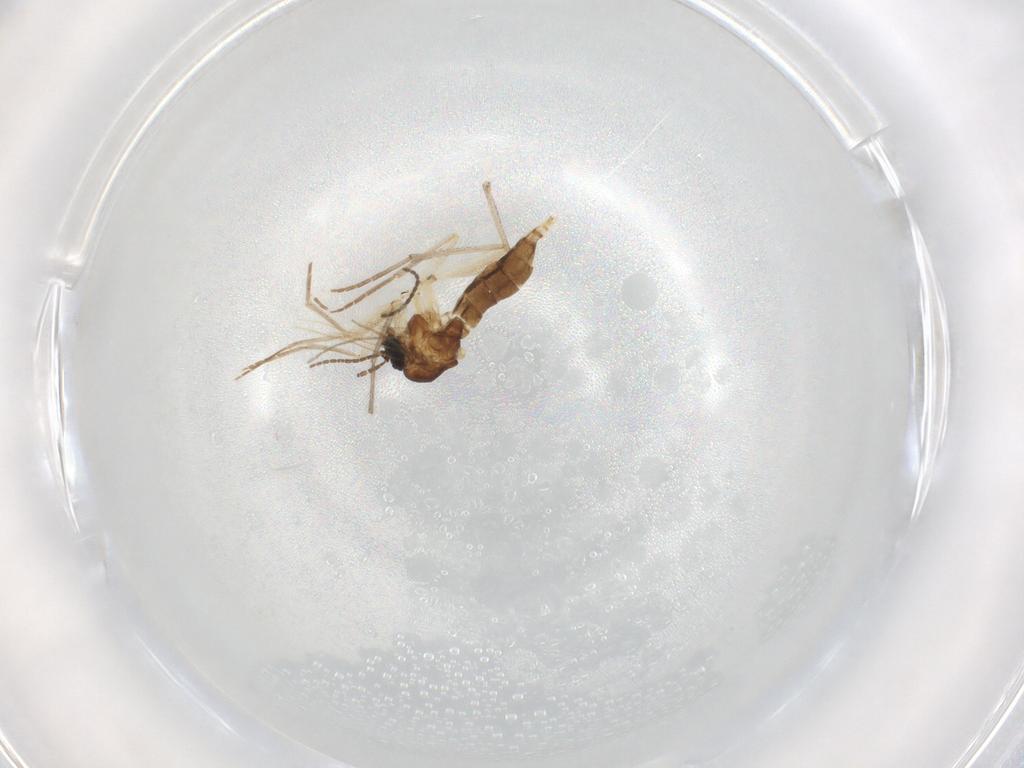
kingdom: Animalia
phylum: Arthropoda
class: Insecta
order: Diptera
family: Sciaridae
